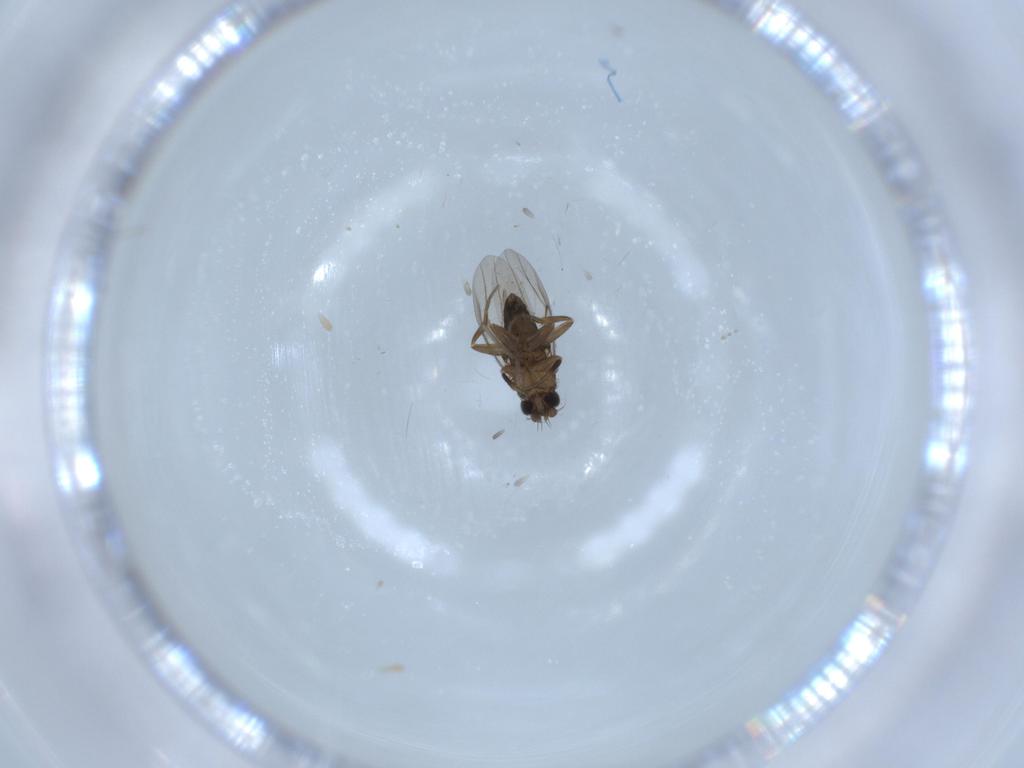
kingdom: Animalia
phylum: Arthropoda
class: Insecta
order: Diptera
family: Phoridae
